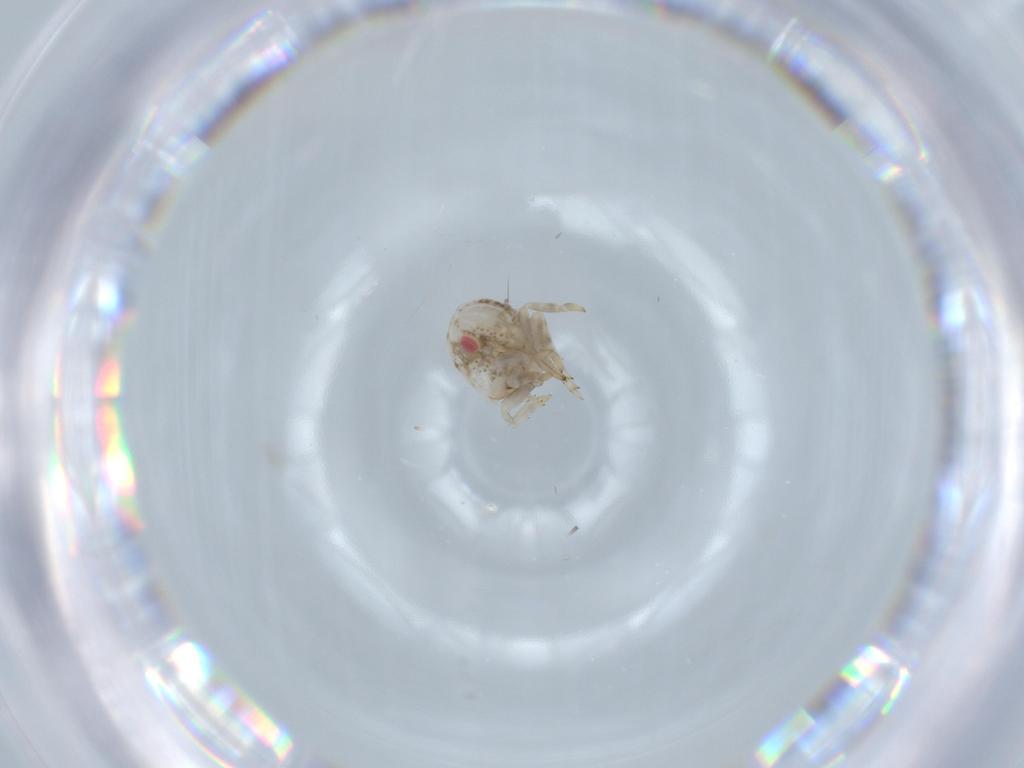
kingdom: Animalia
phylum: Arthropoda
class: Insecta
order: Hemiptera
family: Acanaloniidae
